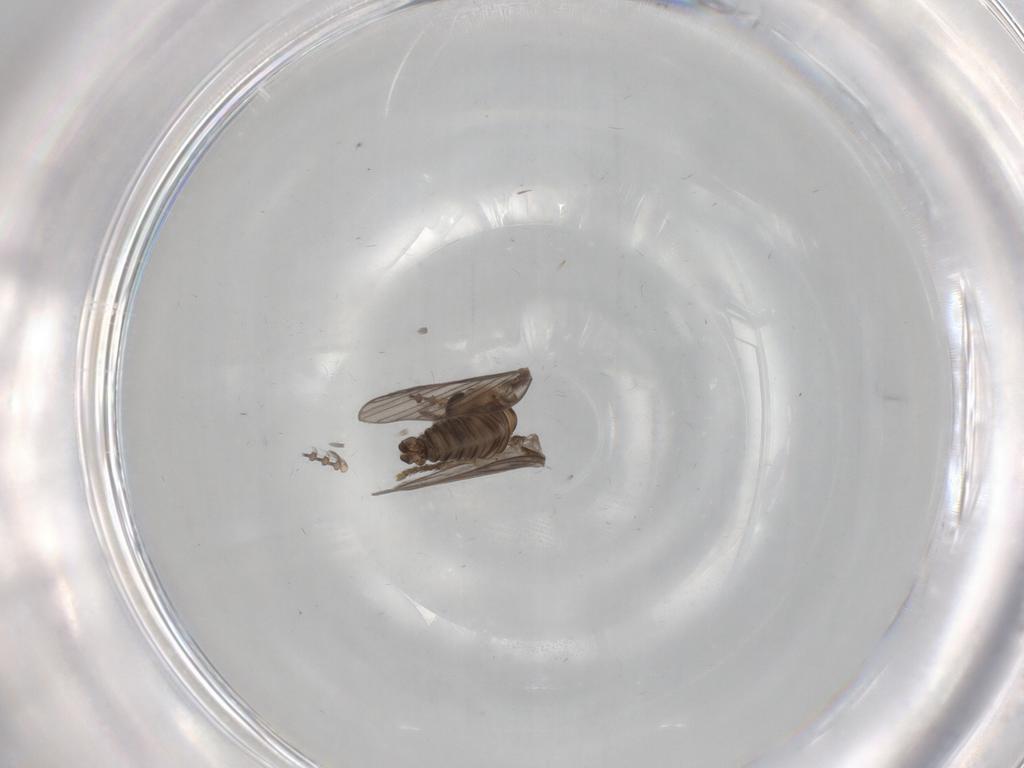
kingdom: Animalia
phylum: Arthropoda
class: Insecta
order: Diptera
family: Psychodidae
